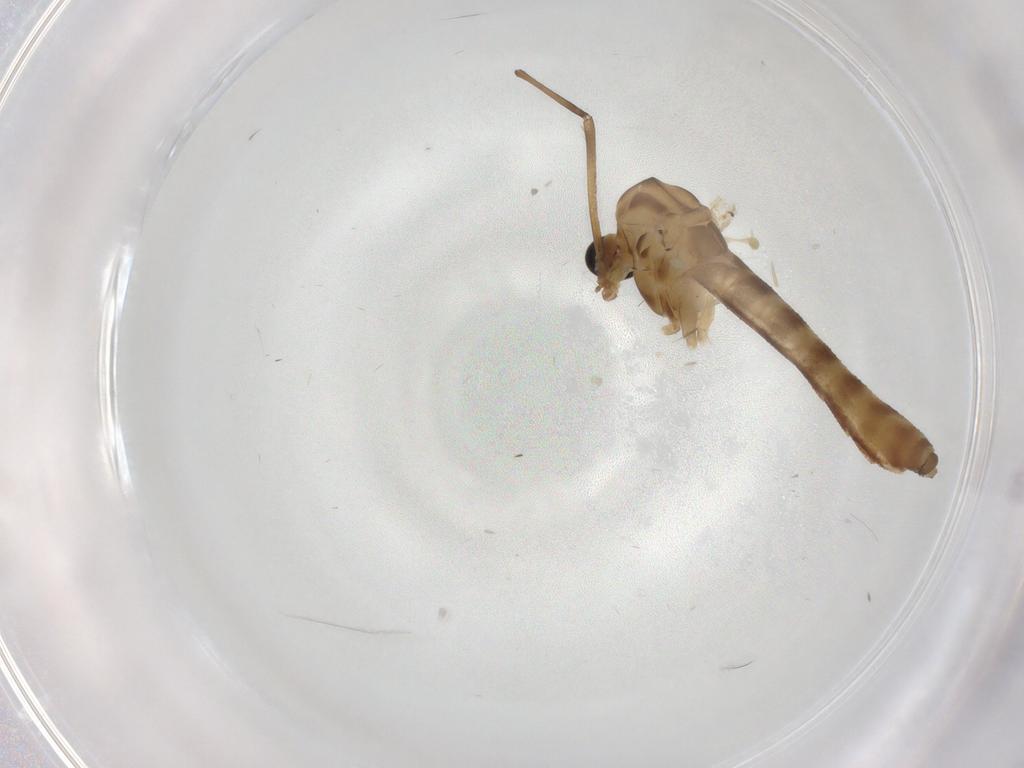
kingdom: Animalia
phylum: Arthropoda
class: Insecta
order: Diptera
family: Chironomidae
